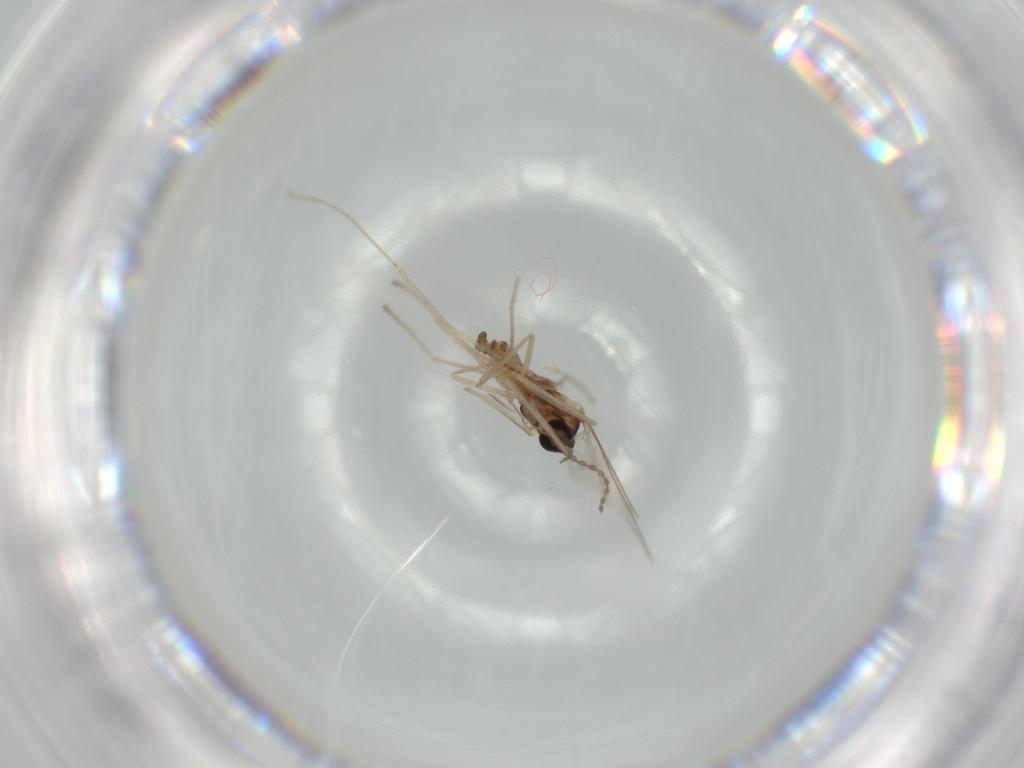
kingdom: Animalia
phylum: Arthropoda
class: Insecta
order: Diptera
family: Cecidomyiidae
